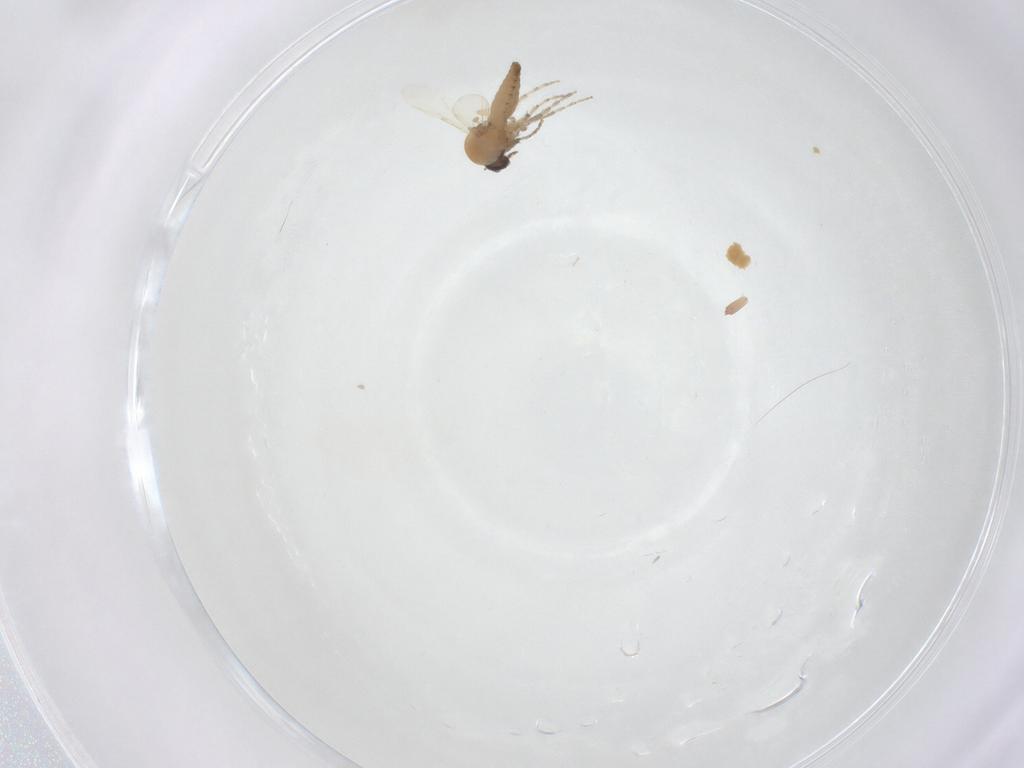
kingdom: Animalia
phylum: Arthropoda
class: Insecta
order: Diptera
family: Ceratopogonidae
